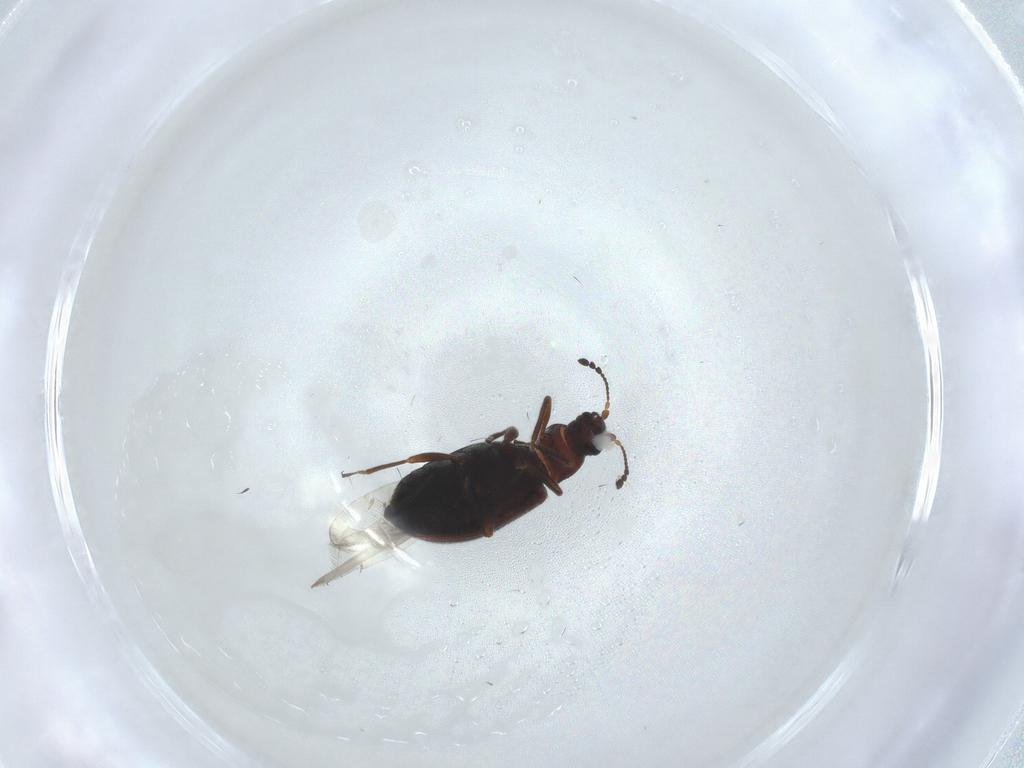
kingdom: Animalia
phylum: Arthropoda
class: Insecta
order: Coleoptera
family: Latridiidae
